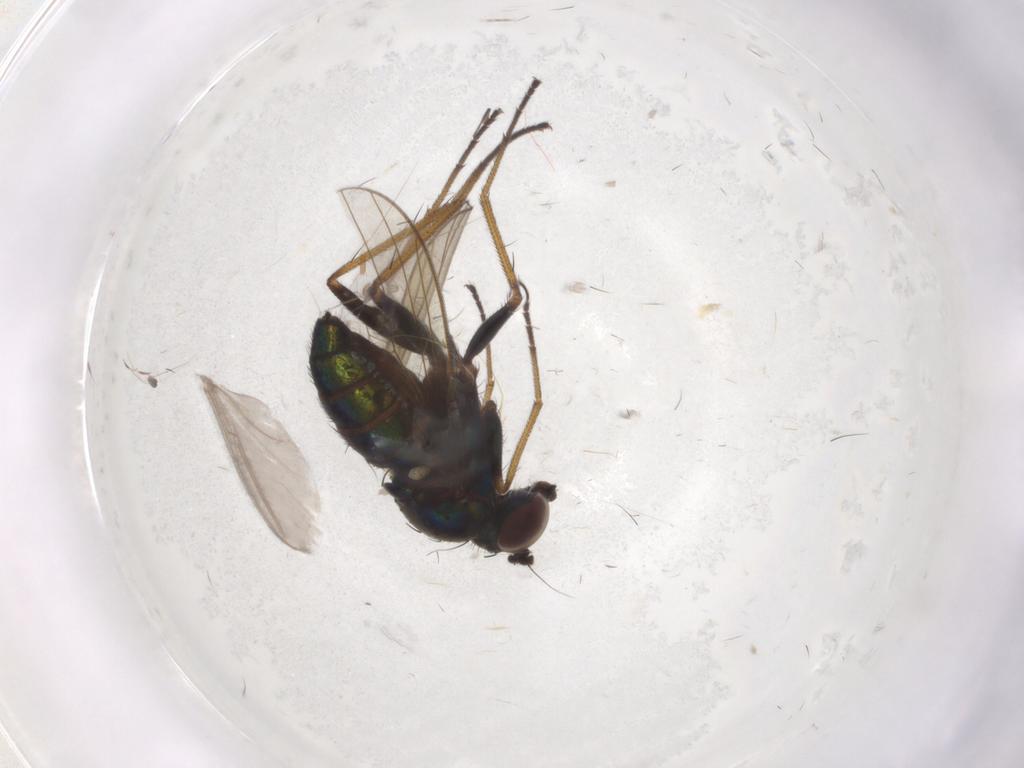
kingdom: Animalia
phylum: Arthropoda
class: Insecta
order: Diptera
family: Dolichopodidae
